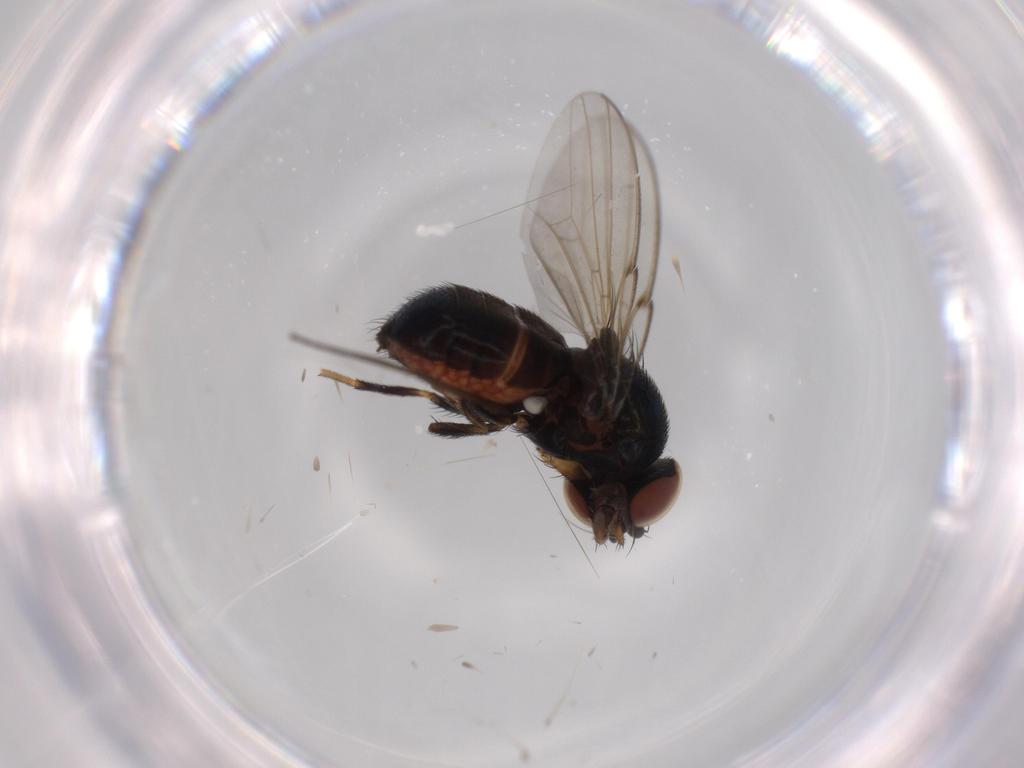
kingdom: Animalia
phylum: Arthropoda
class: Insecta
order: Diptera
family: Milichiidae
